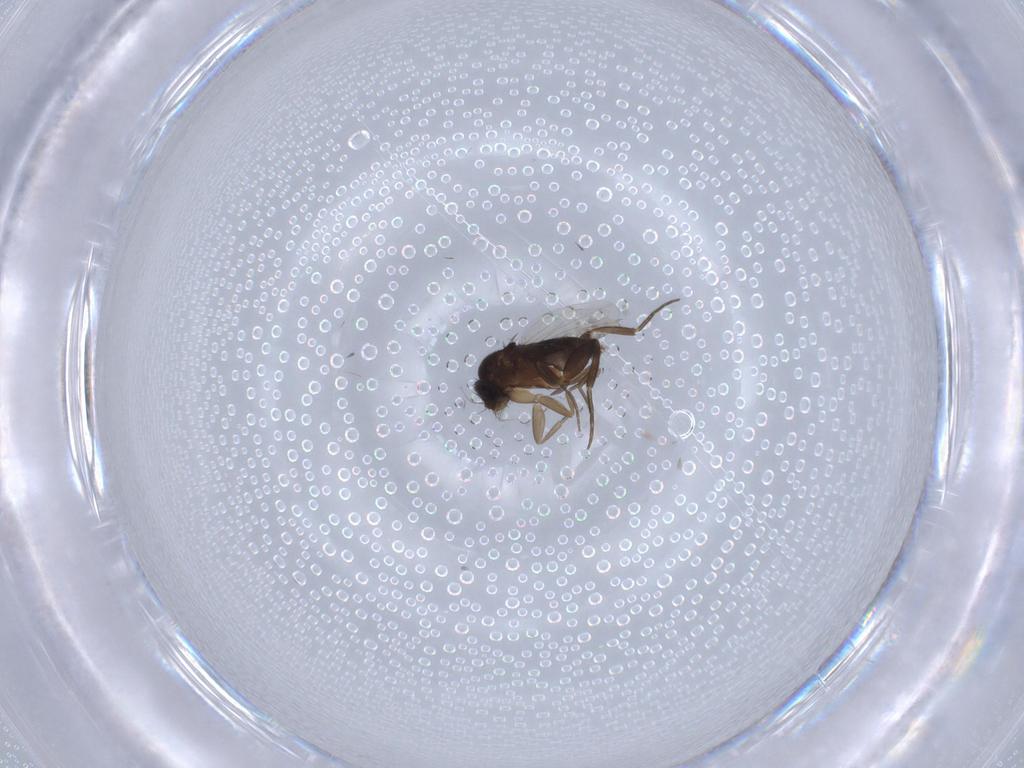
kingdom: Animalia
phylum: Arthropoda
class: Insecta
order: Diptera
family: Phoridae
